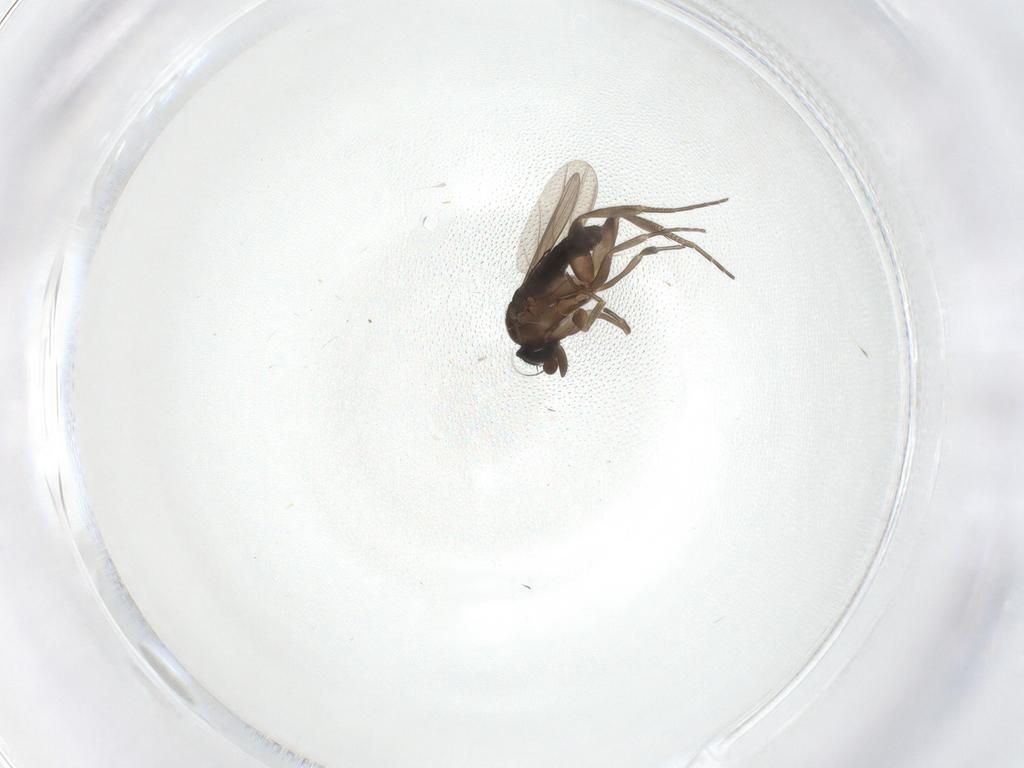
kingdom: Animalia
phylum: Arthropoda
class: Insecta
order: Diptera
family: Phoridae
